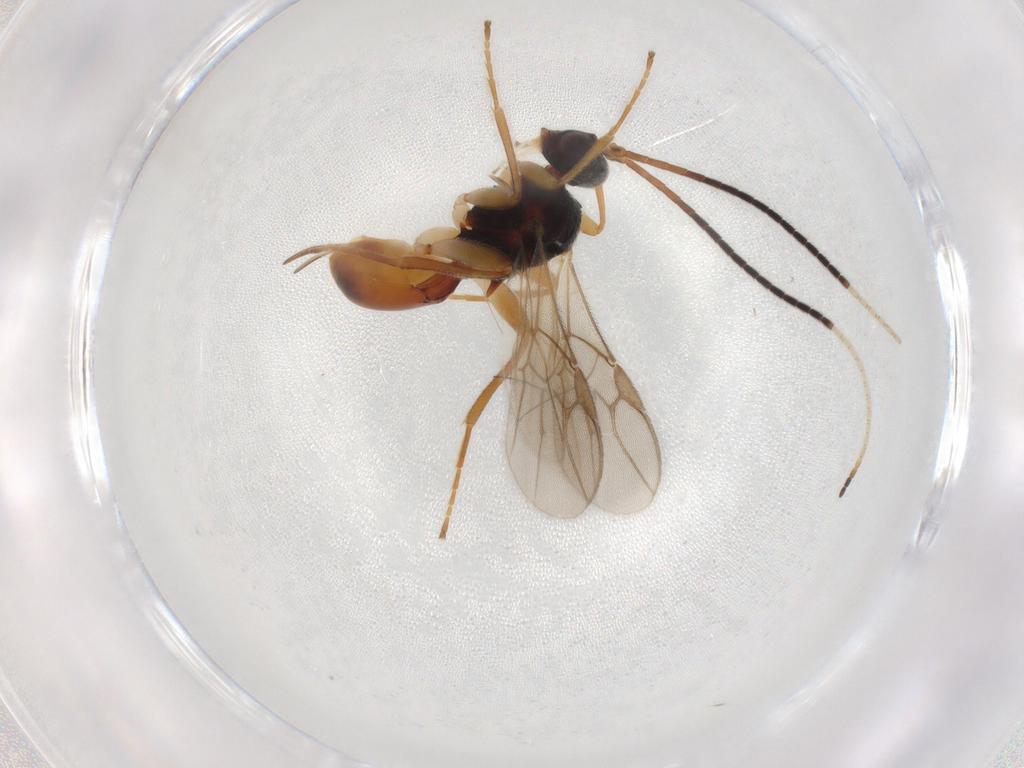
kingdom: Animalia
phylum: Arthropoda
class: Insecta
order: Hymenoptera
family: Braconidae
